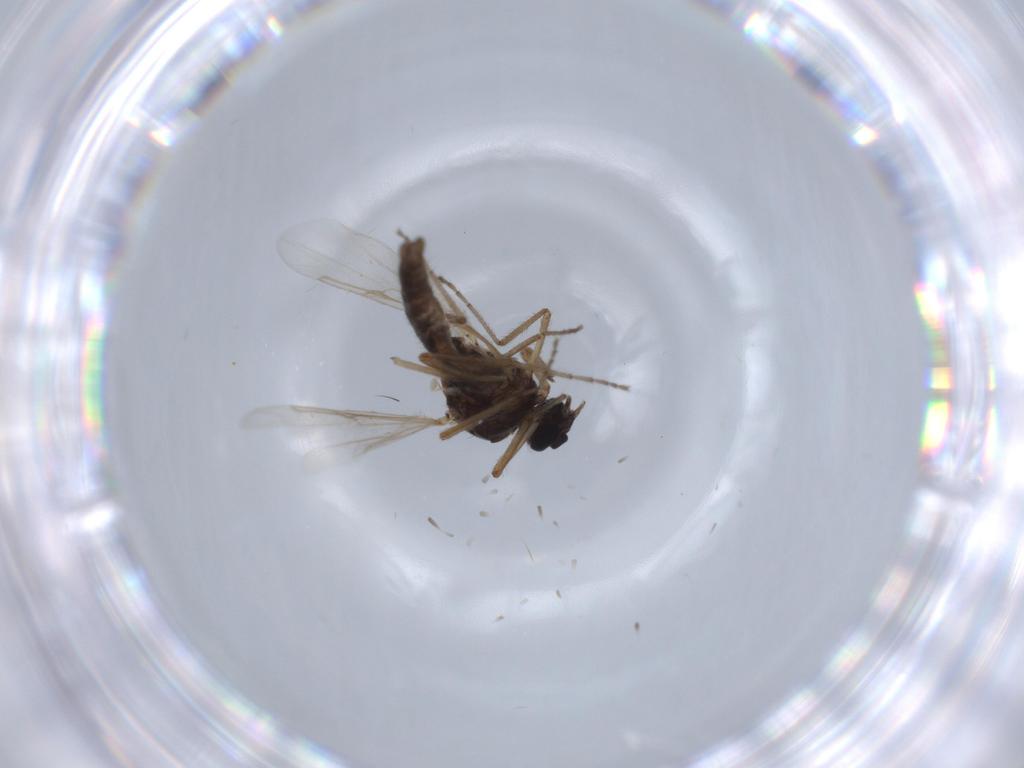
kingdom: Animalia
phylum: Arthropoda
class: Insecta
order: Diptera
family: Ceratopogonidae
